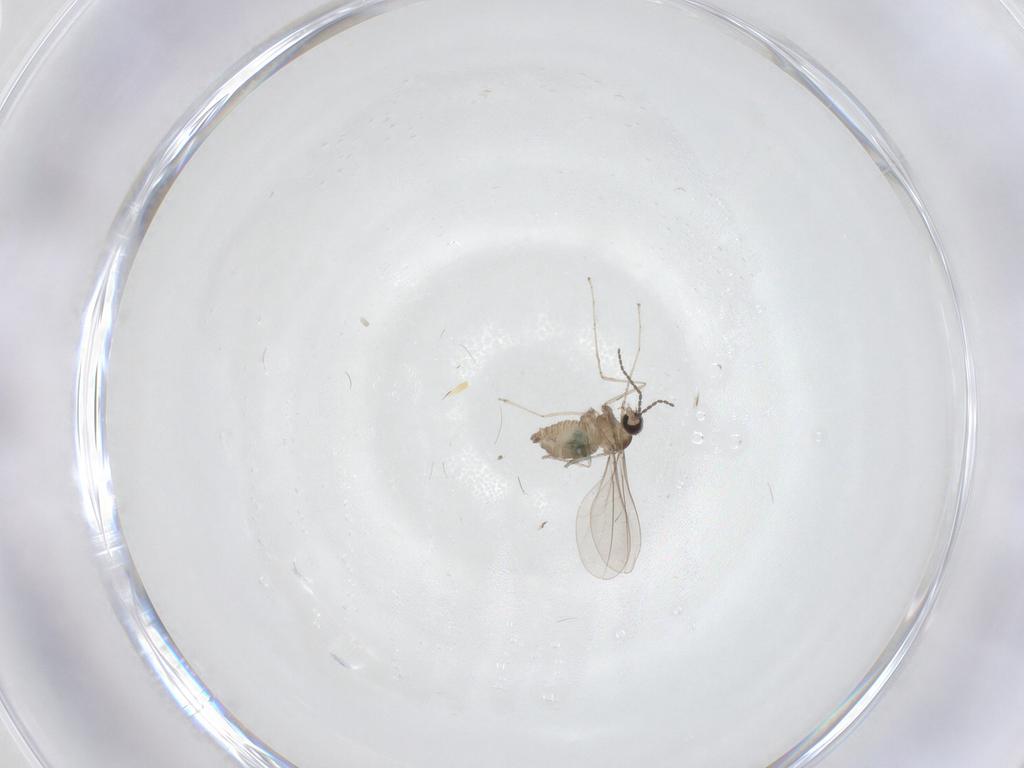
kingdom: Animalia
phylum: Arthropoda
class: Insecta
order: Diptera
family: Cecidomyiidae
